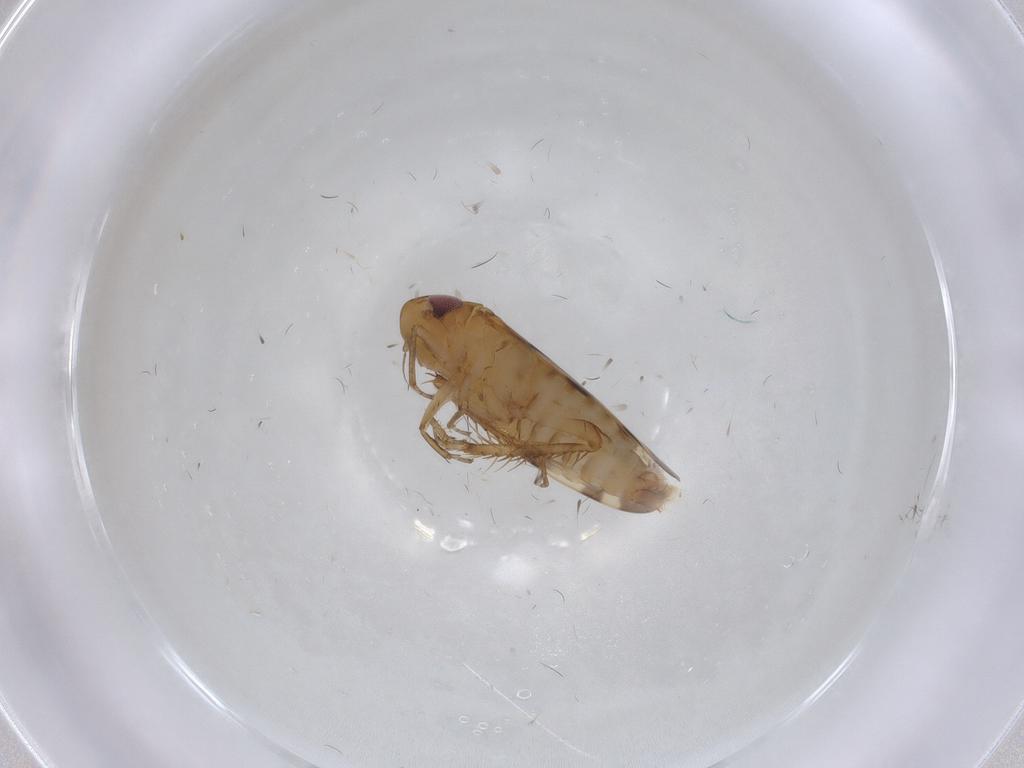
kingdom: Animalia
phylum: Arthropoda
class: Insecta
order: Hemiptera
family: Cicadellidae
